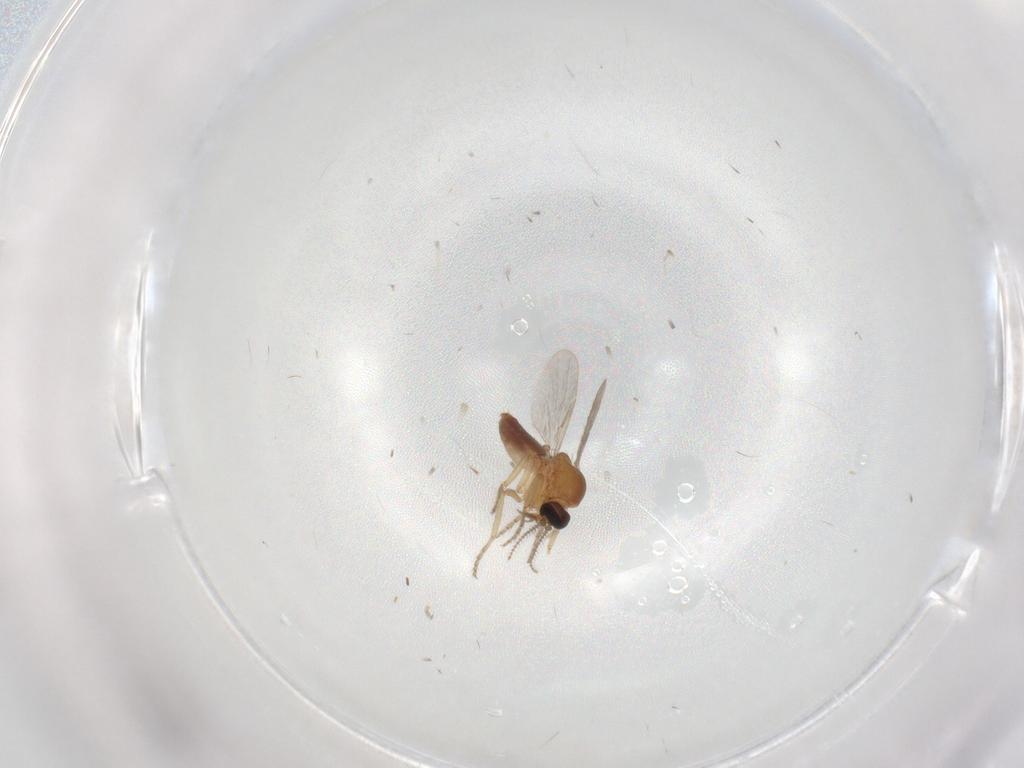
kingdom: Animalia
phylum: Arthropoda
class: Insecta
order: Diptera
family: Ceratopogonidae
